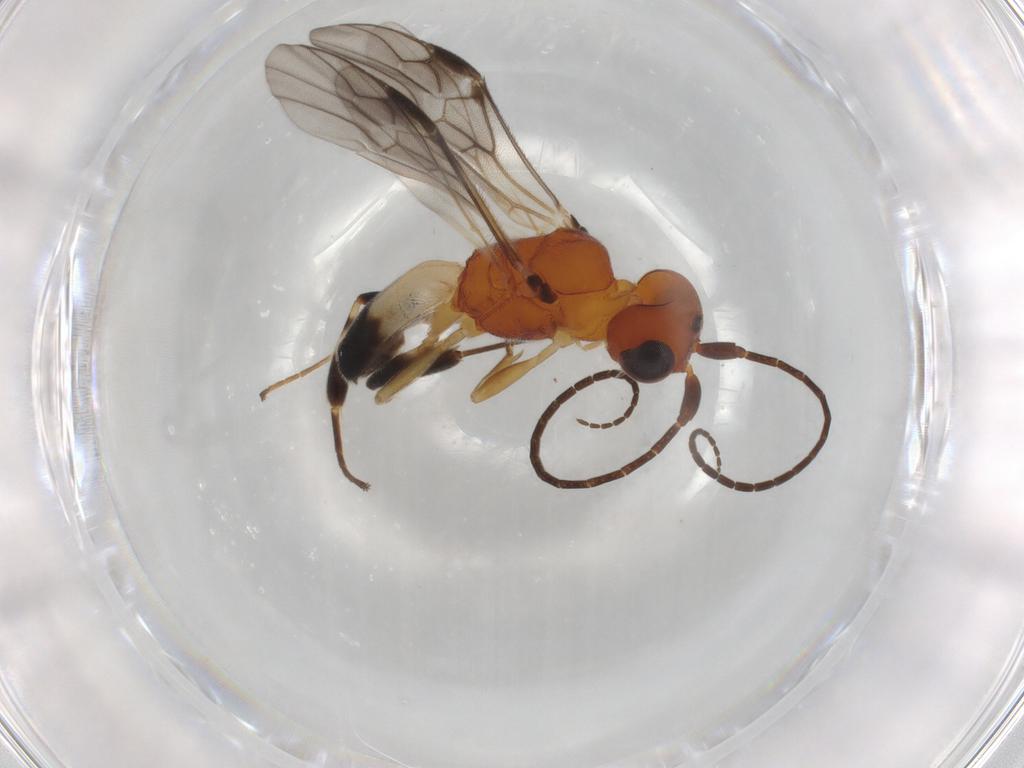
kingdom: Animalia
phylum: Arthropoda
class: Insecta
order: Hymenoptera
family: Braconidae
